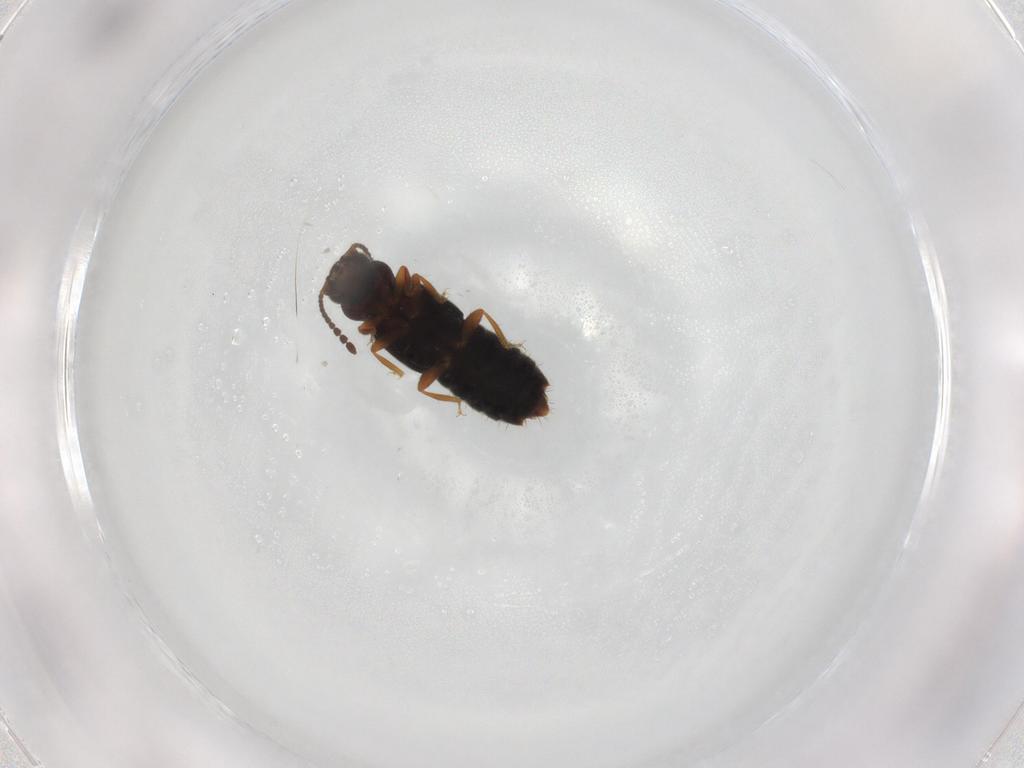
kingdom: Animalia
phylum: Arthropoda
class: Insecta
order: Coleoptera
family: Staphylinidae
